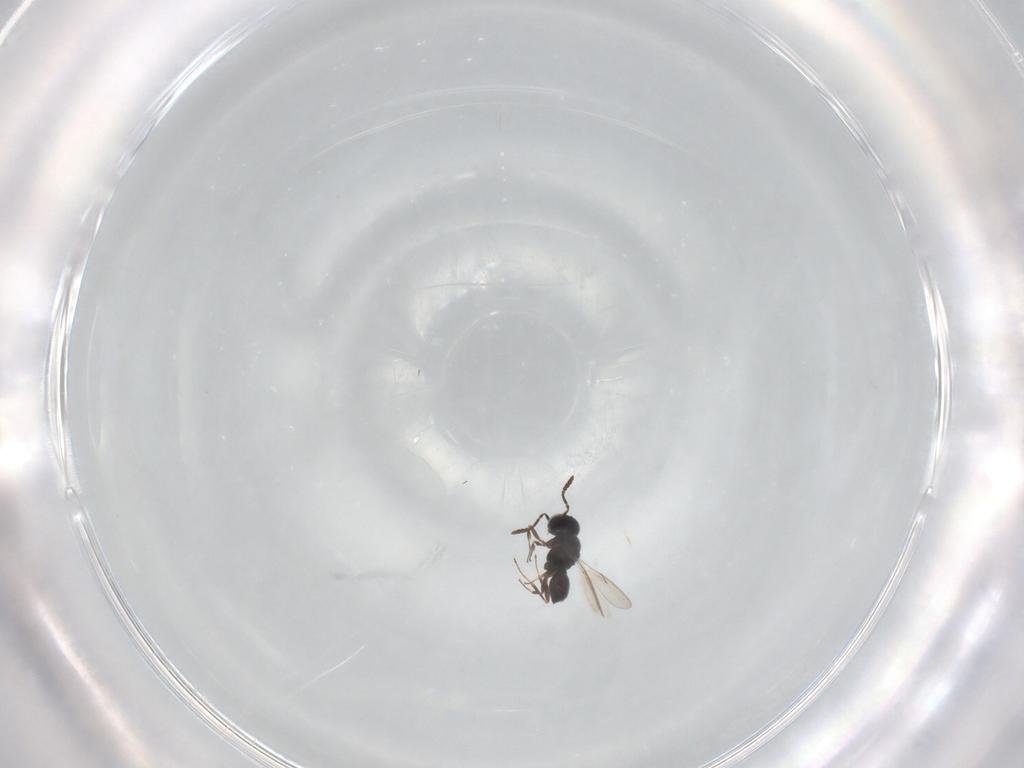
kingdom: Animalia
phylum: Arthropoda
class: Insecta
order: Hymenoptera
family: Scelionidae
